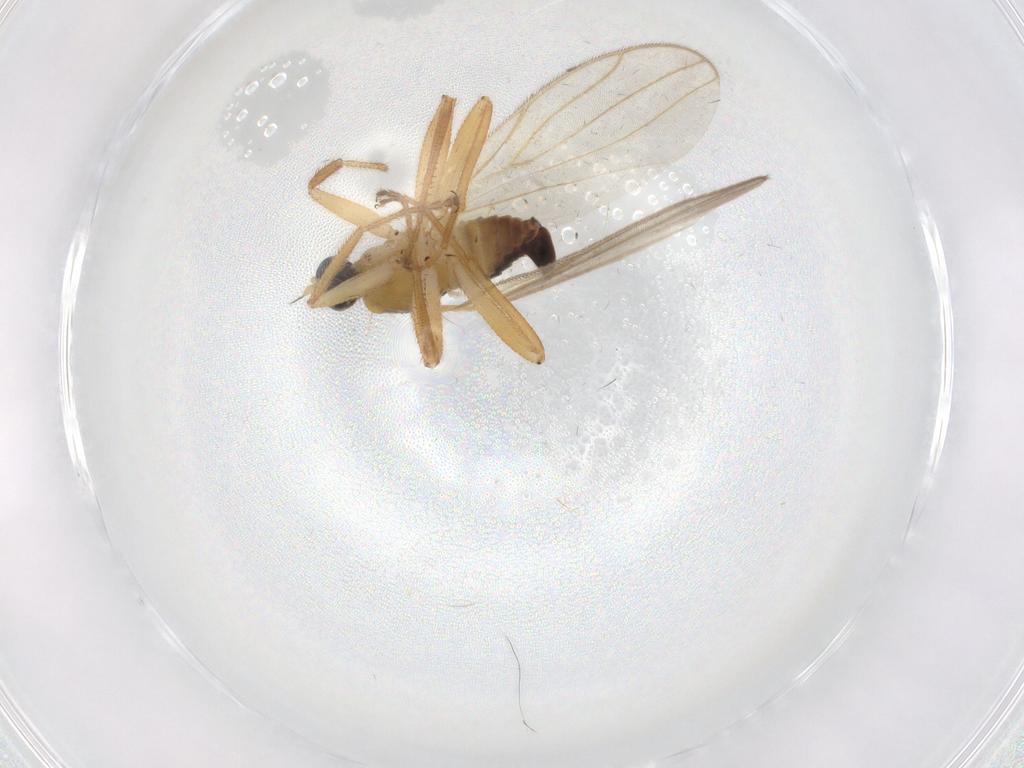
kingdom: Animalia
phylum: Arthropoda
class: Insecta
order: Diptera
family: Hybotidae
